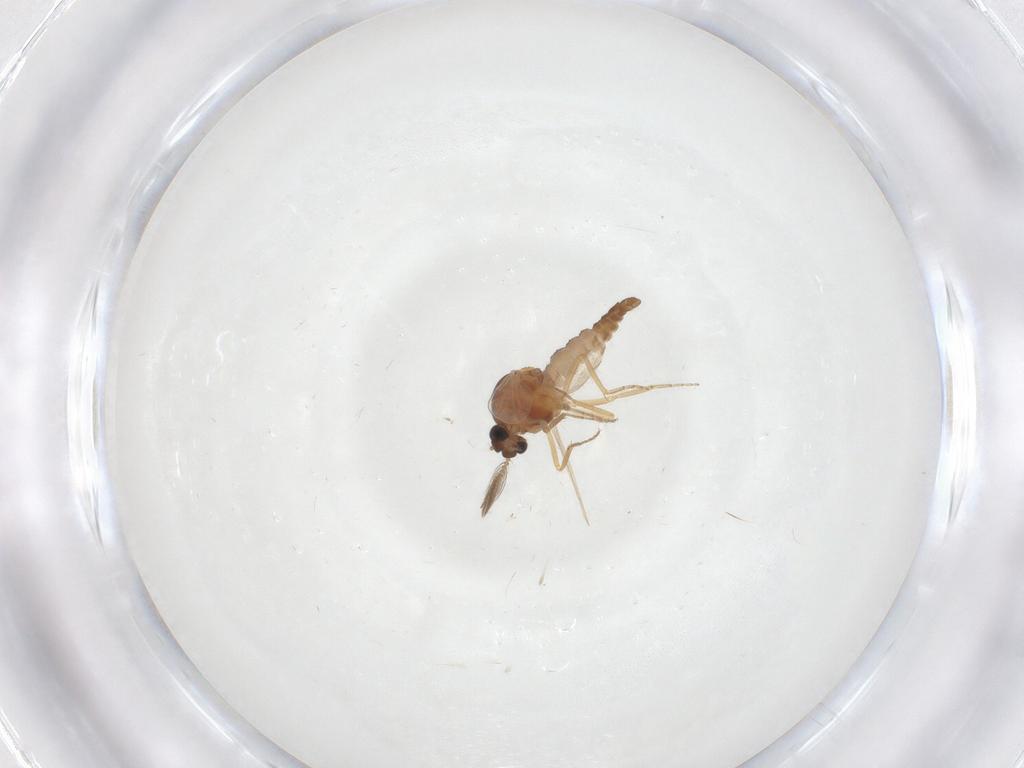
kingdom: Animalia
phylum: Arthropoda
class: Insecta
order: Diptera
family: Ceratopogonidae
